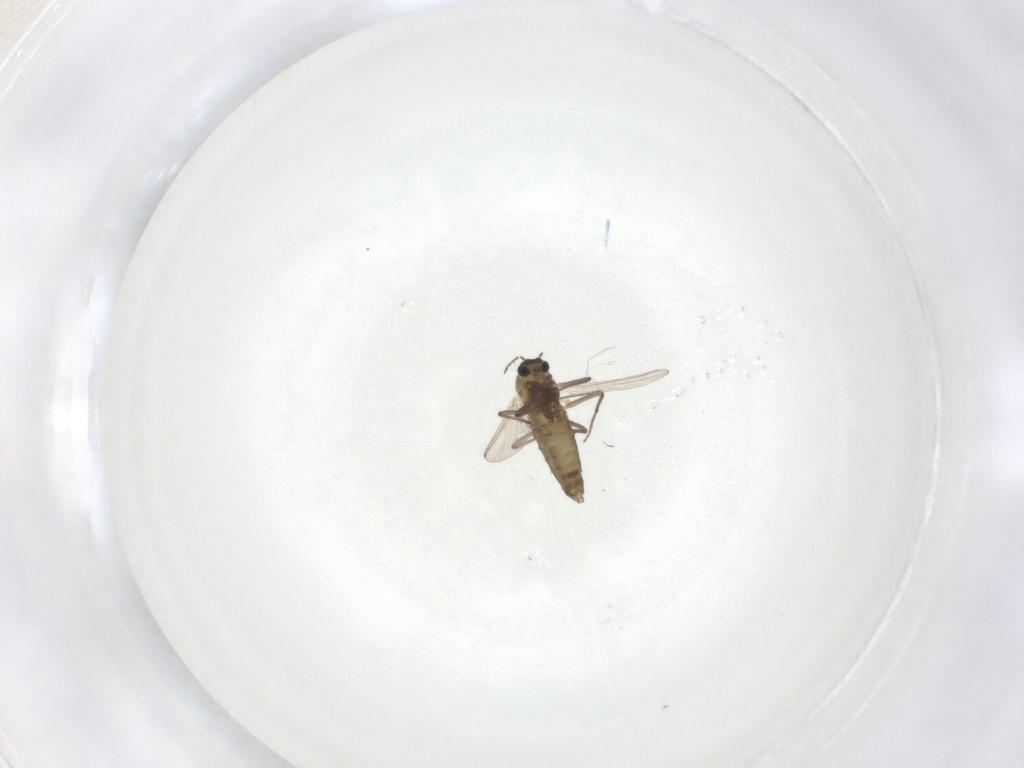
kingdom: Animalia
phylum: Arthropoda
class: Insecta
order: Diptera
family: Chironomidae
